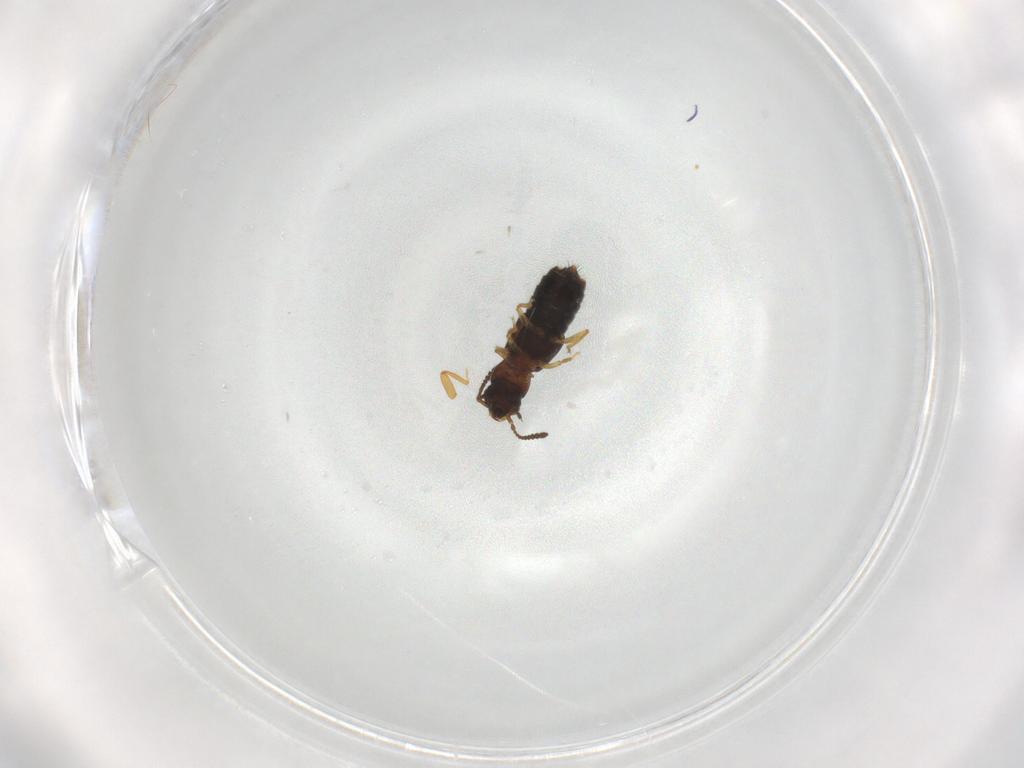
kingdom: Animalia
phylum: Arthropoda
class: Insecta
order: Coleoptera
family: Staphylinidae
